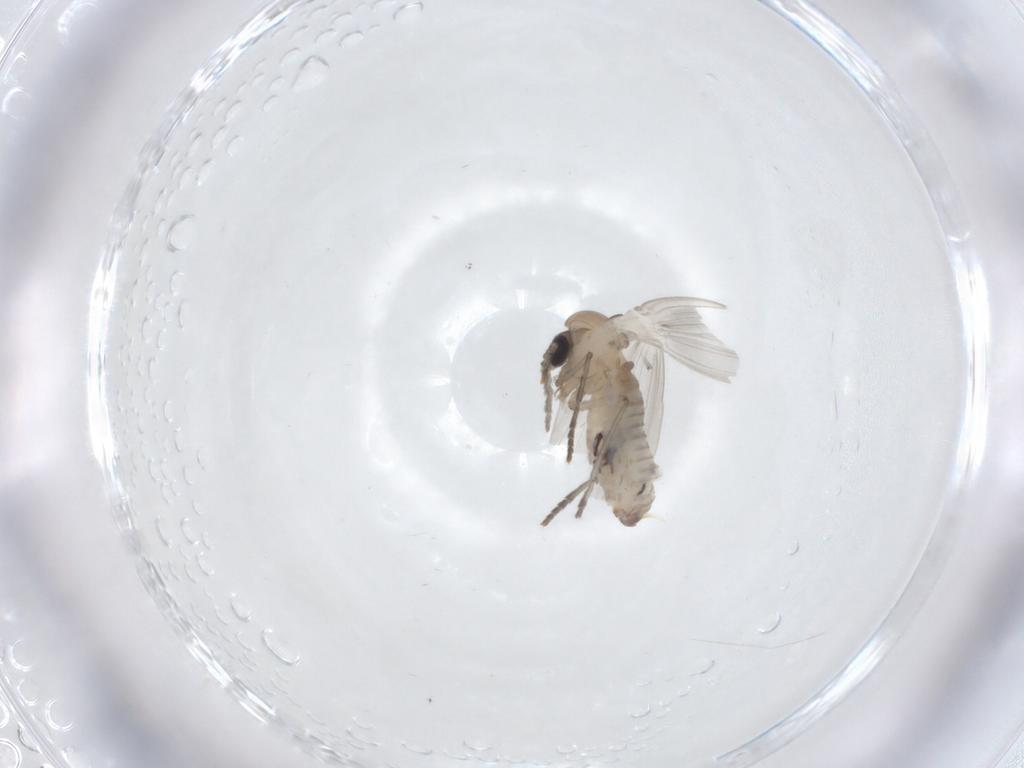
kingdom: Animalia
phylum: Arthropoda
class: Insecta
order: Diptera
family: Psychodidae
